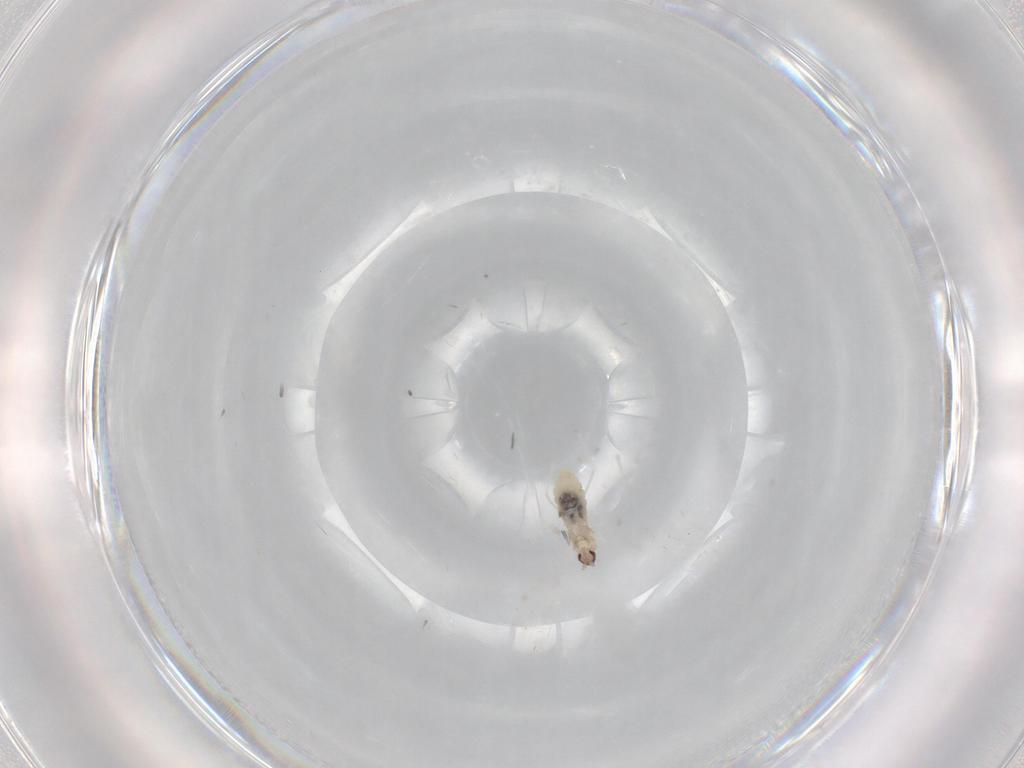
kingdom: Animalia
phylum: Arthropoda
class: Insecta
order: Diptera
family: Cecidomyiidae
